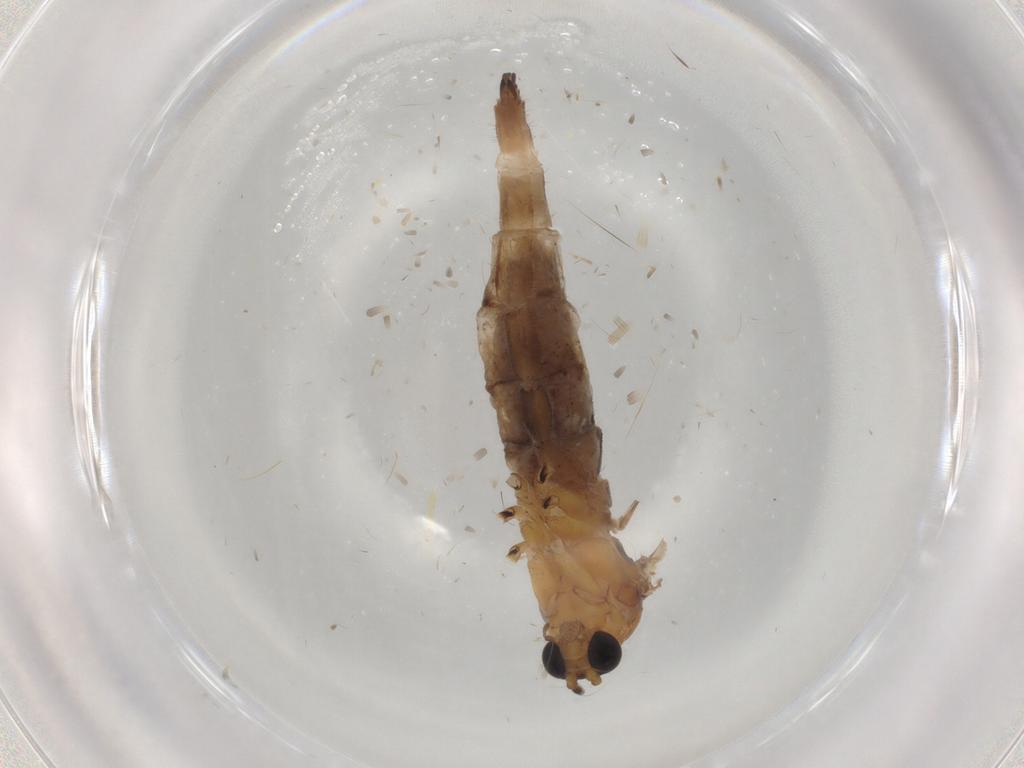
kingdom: Animalia
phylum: Arthropoda
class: Insecta
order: Diptera
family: Sciaridae
